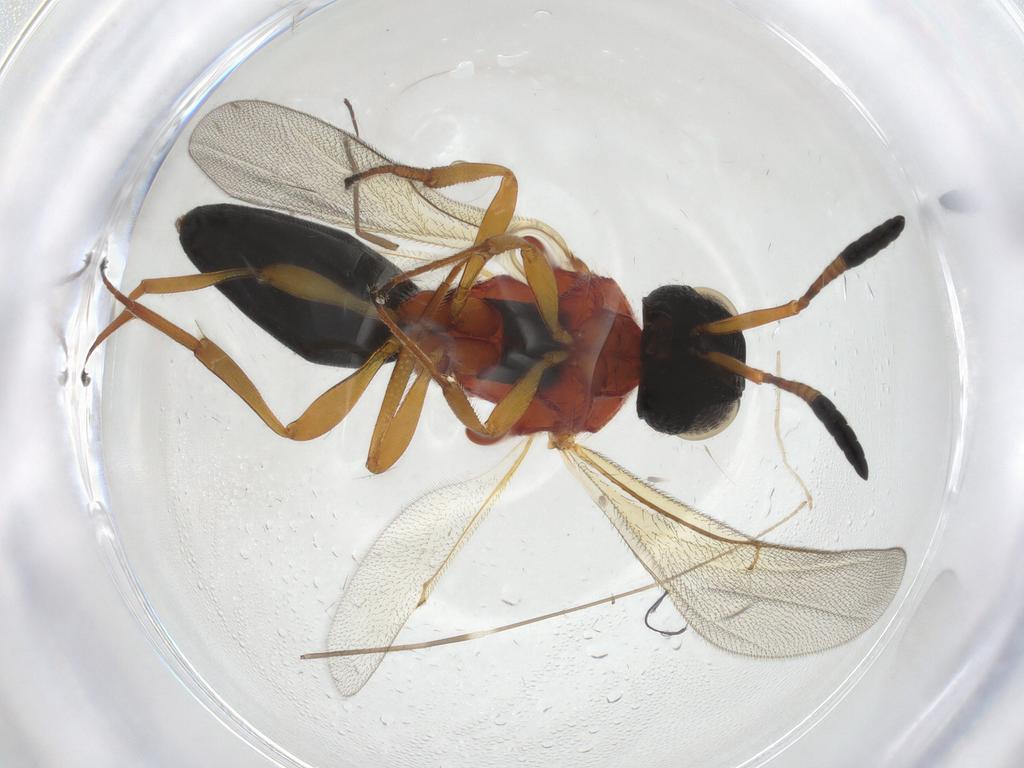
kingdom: Animalia
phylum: Arthropoda
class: Insecta
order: Hymenoptera
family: Scelionidae
